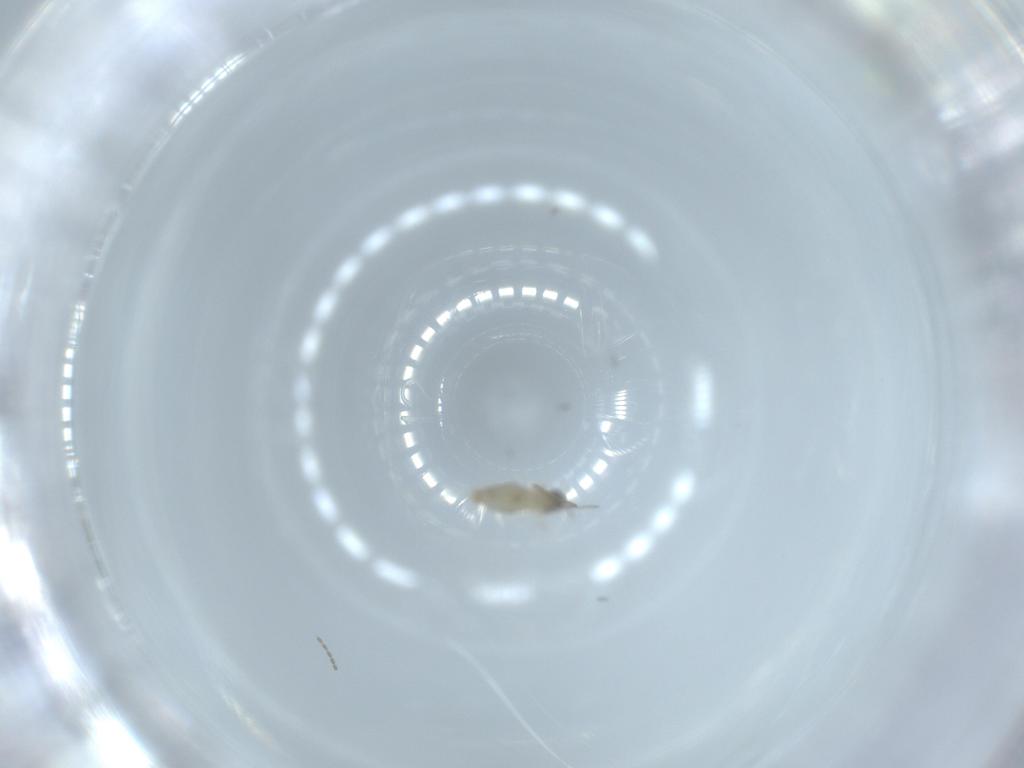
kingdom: Animalia
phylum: Arthropoda
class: Insecta
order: Diptera
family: Cecidomyiidae
